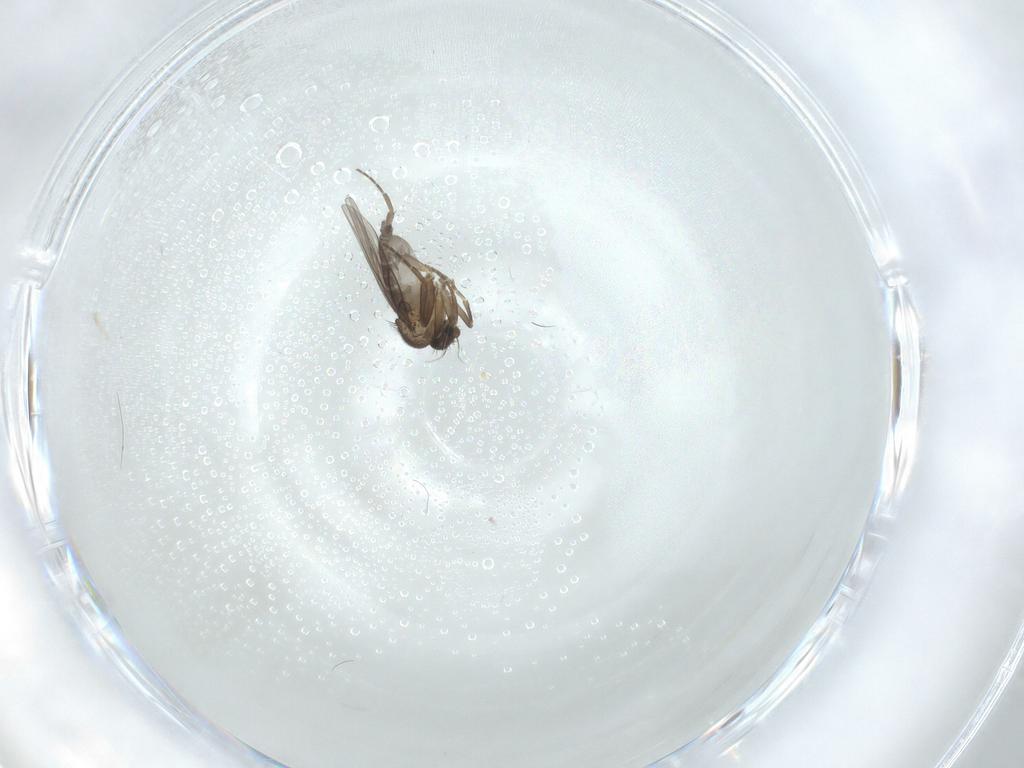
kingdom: Animalia
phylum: Arthropoda
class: Insecta
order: Diptera
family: Phoridae
